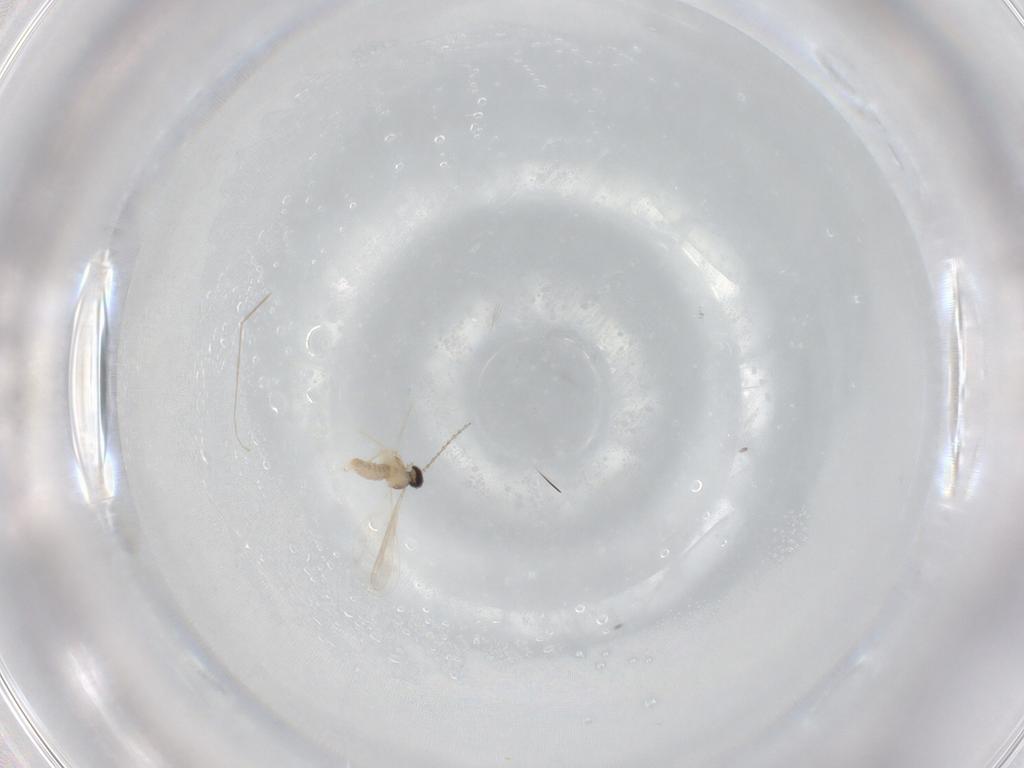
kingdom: Animalia
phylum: Arthropoda
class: Insecta
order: Diptera
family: Cecidomyiidae
